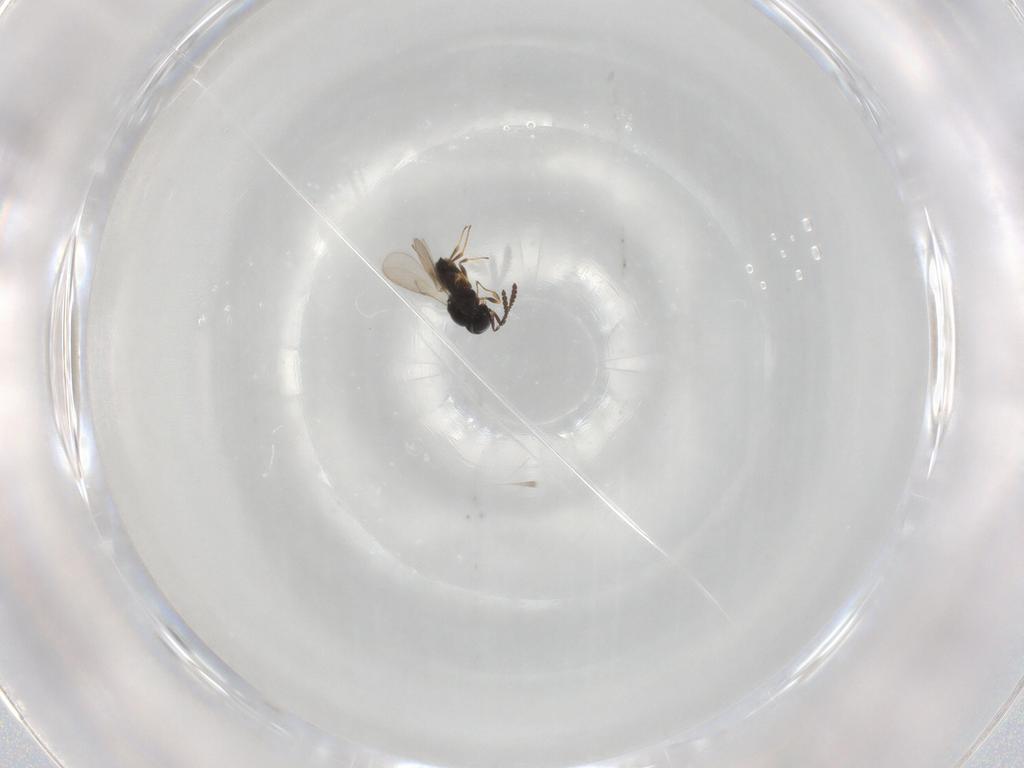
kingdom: Animalia
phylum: Arthropoda
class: Insecta
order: Hymenoptera
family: Scelionidae
